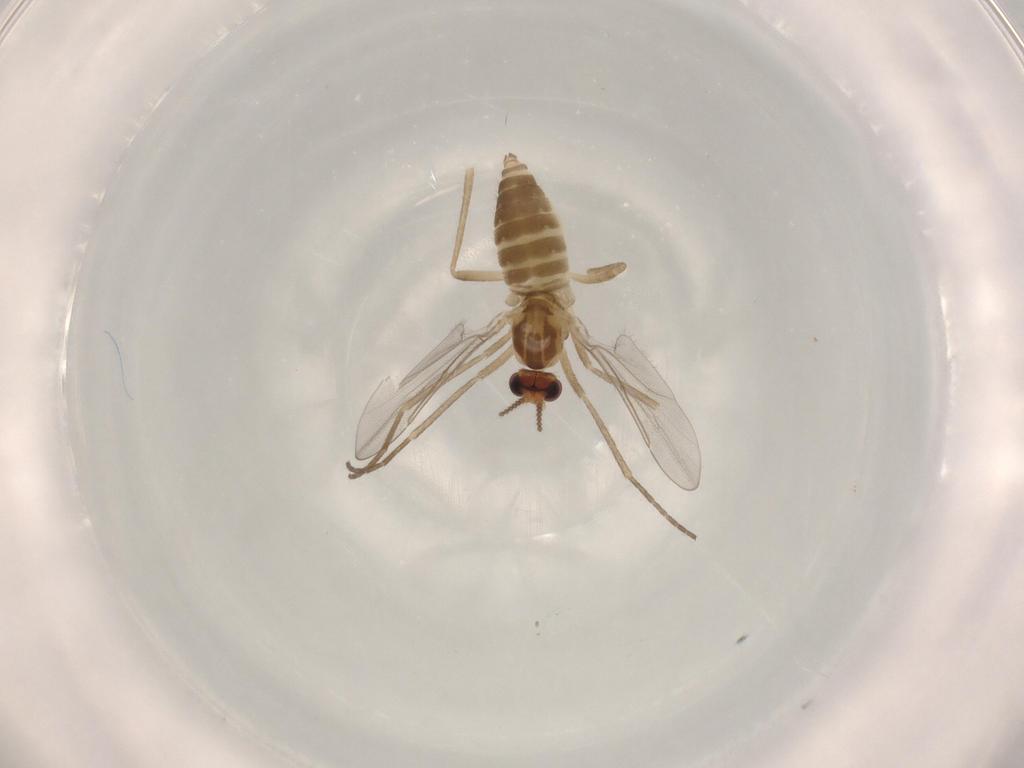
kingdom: Animalia
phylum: Arthropoda
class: Insecta
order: Diptera
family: Cecidomyiidae
